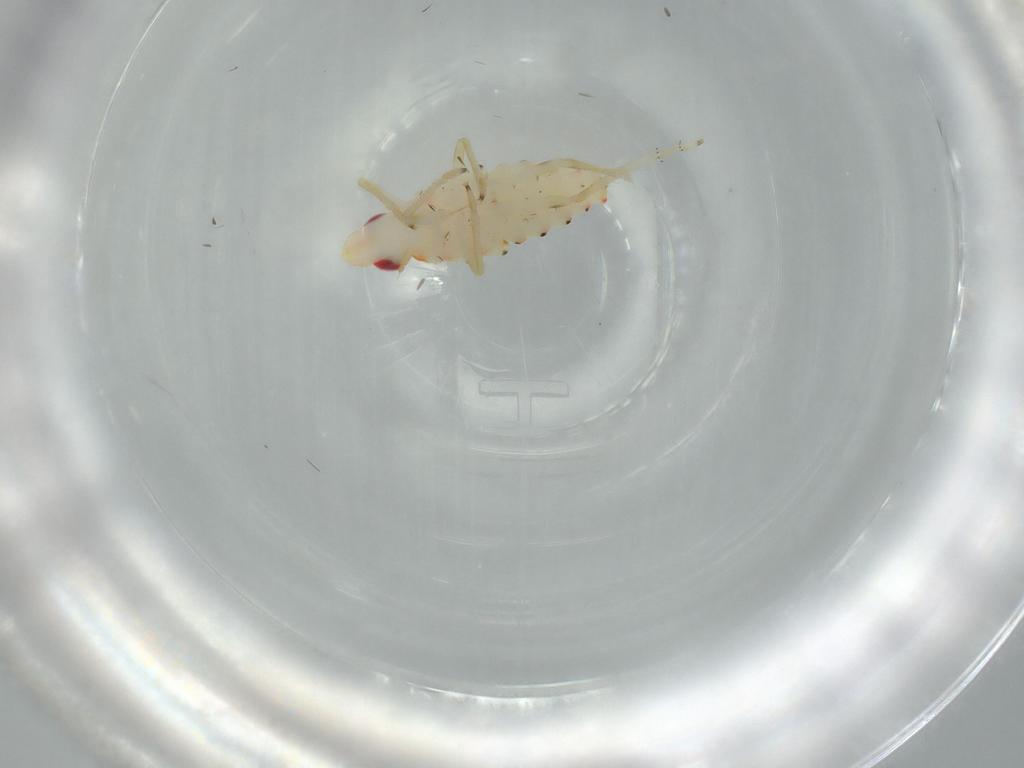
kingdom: Animalia
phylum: Arthropoda
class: Insecta
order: Hemiptera
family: Tropiduchidae
